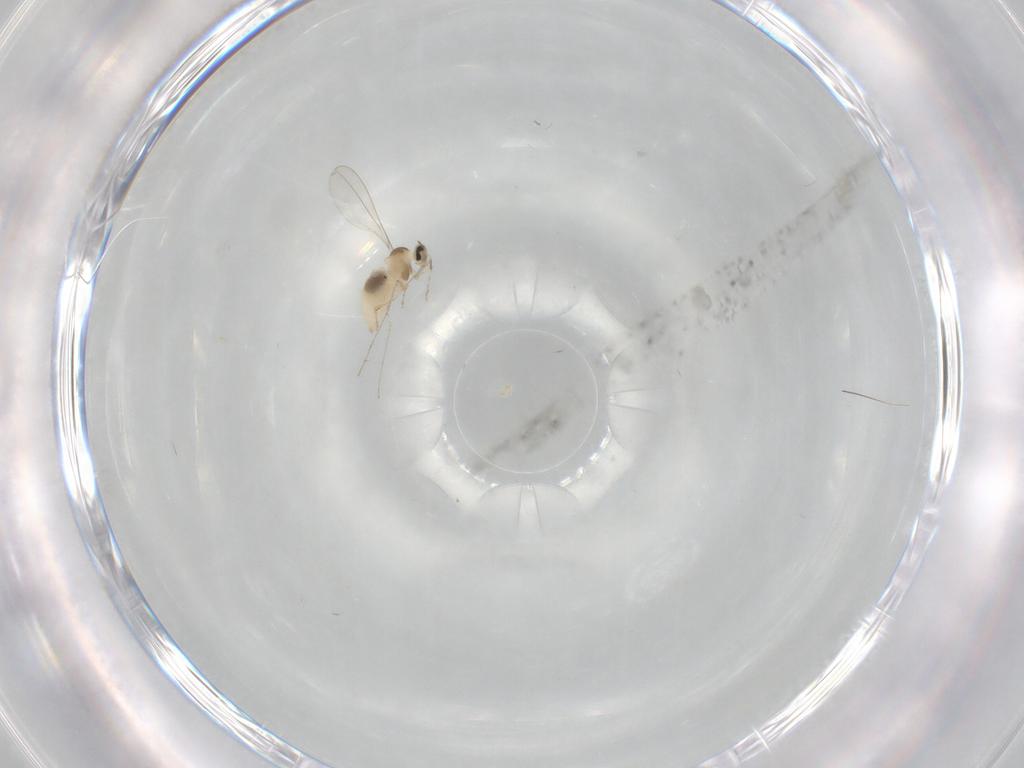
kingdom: Animalia
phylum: Arthropoda
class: Insecta
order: Diptera
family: Cecidomyiidae
